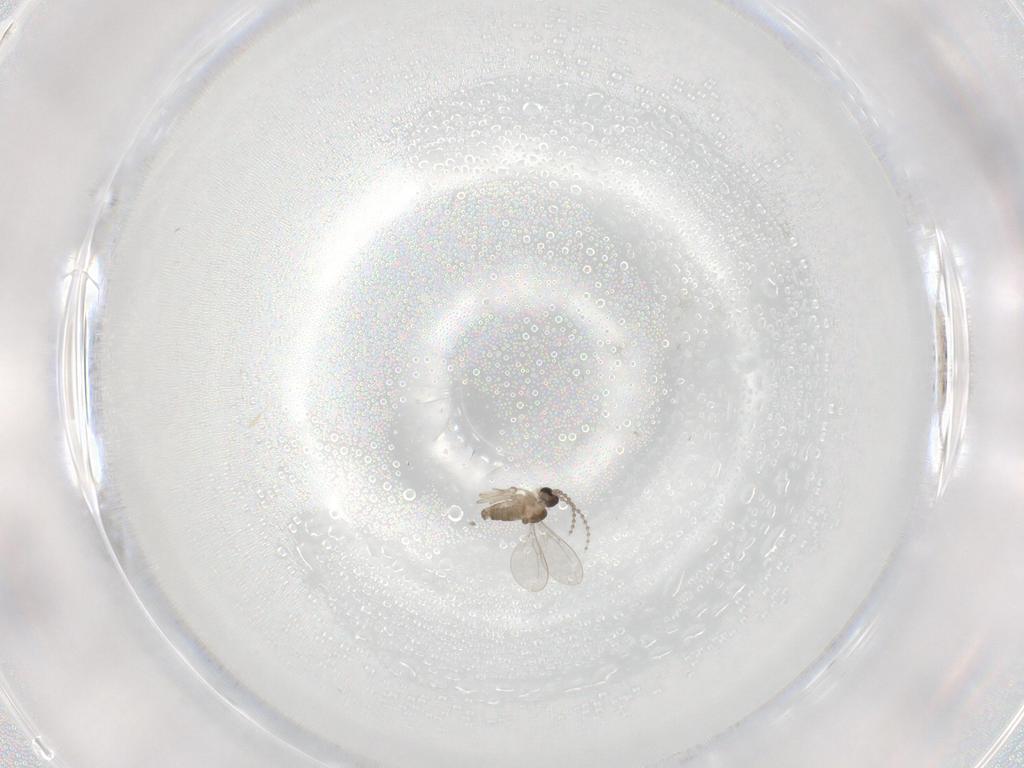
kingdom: Animalia
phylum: Arthropoda
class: Insecta
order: Diptera
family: Cecidomyiidae
